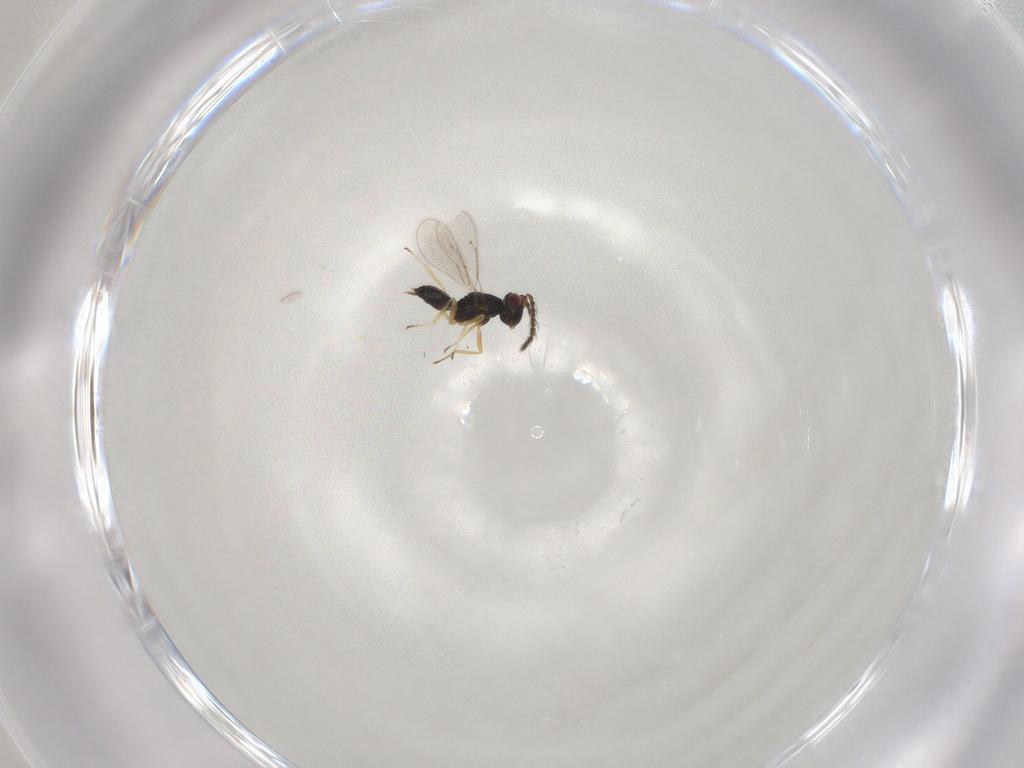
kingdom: Animalia
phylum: Arthropoda
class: Insecta
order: Hymenoptera
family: Eulophidae
